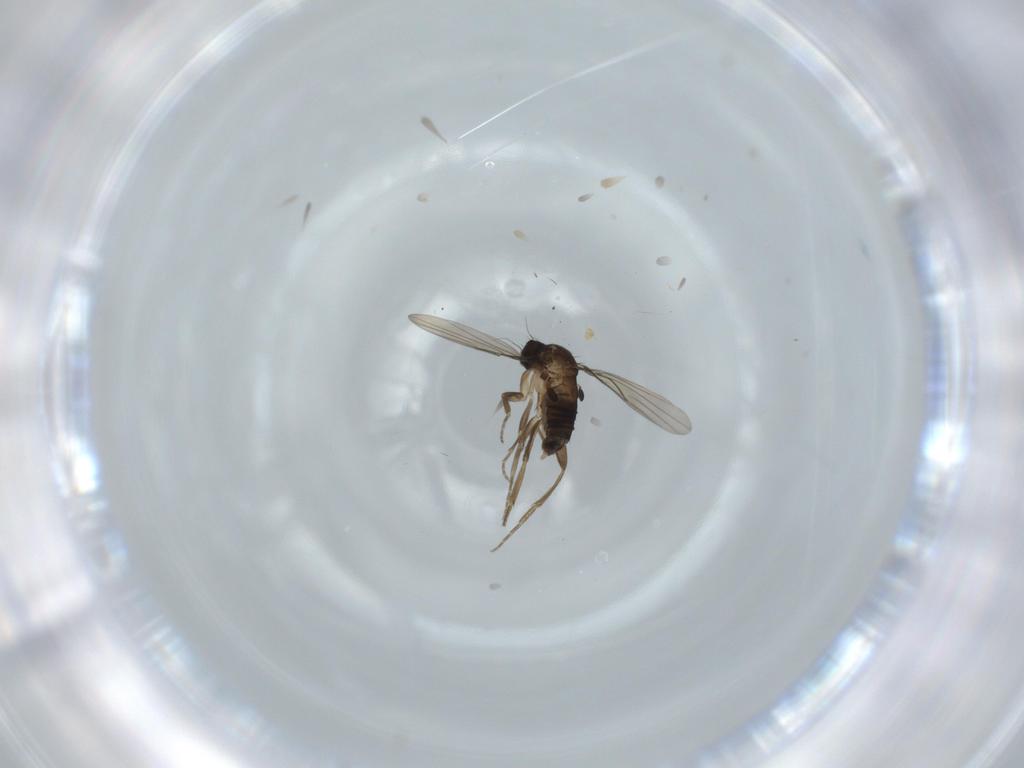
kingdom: Animalia
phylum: Arthropoda
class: Insecta
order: Diptera
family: Phoridae
